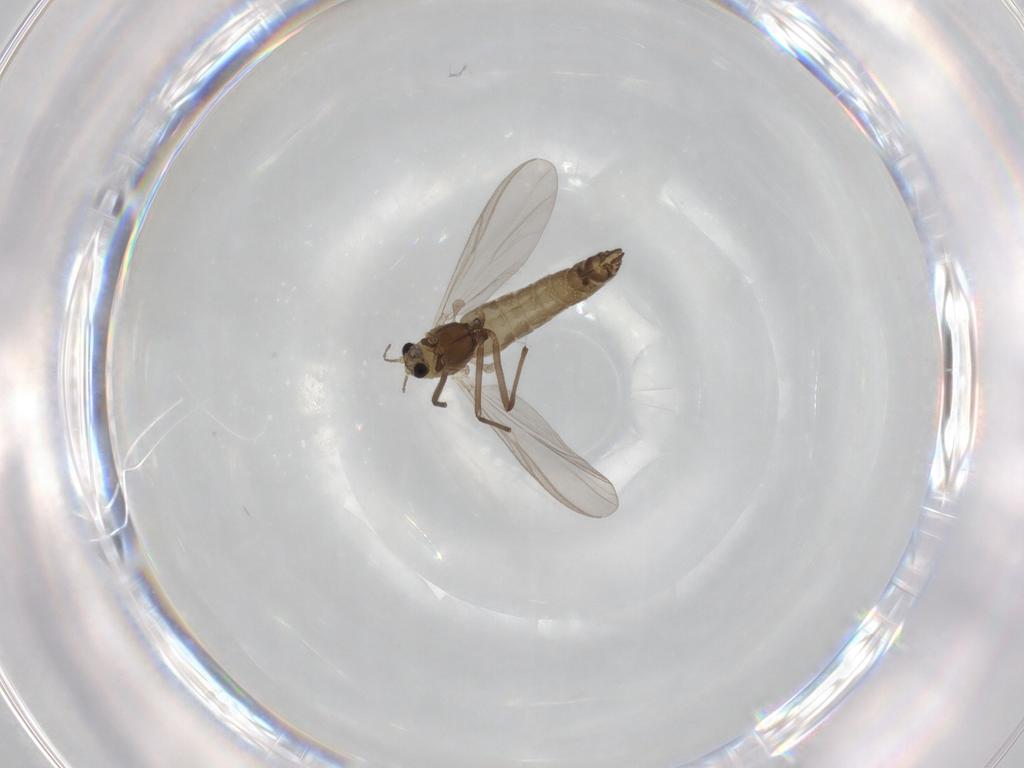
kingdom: Animalia
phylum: Arthropoda
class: Insecta
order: Diptera
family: Chironomidae
